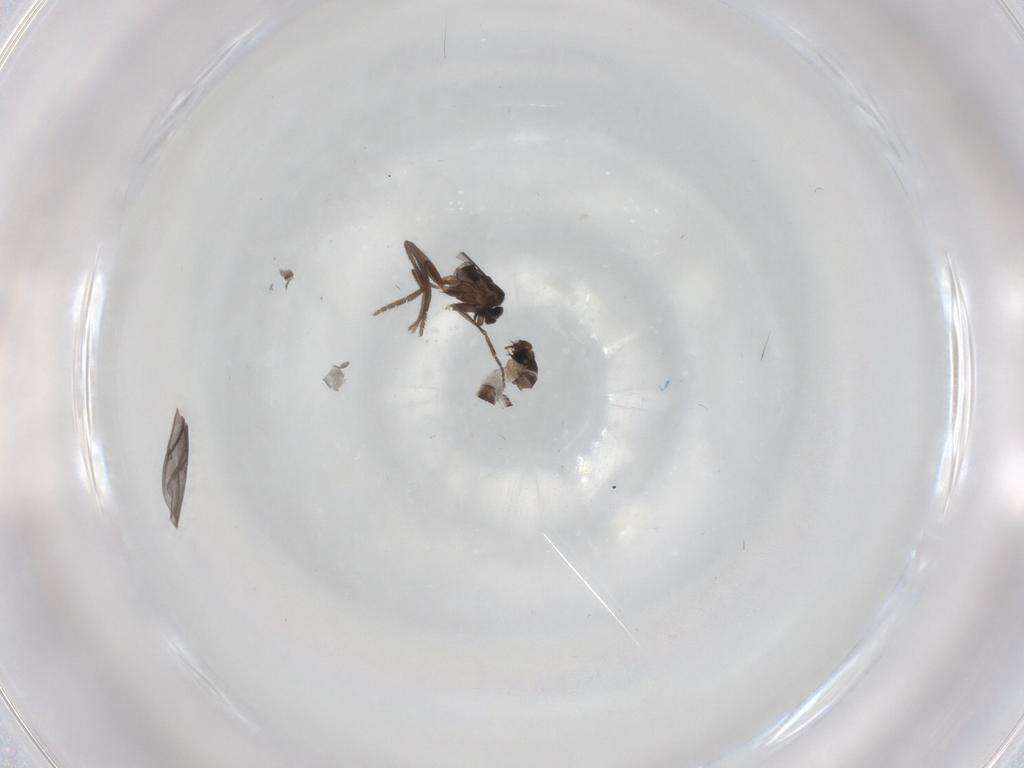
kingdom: Animalia
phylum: Arthropoda
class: Insecta
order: Diptera
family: Phoridae
